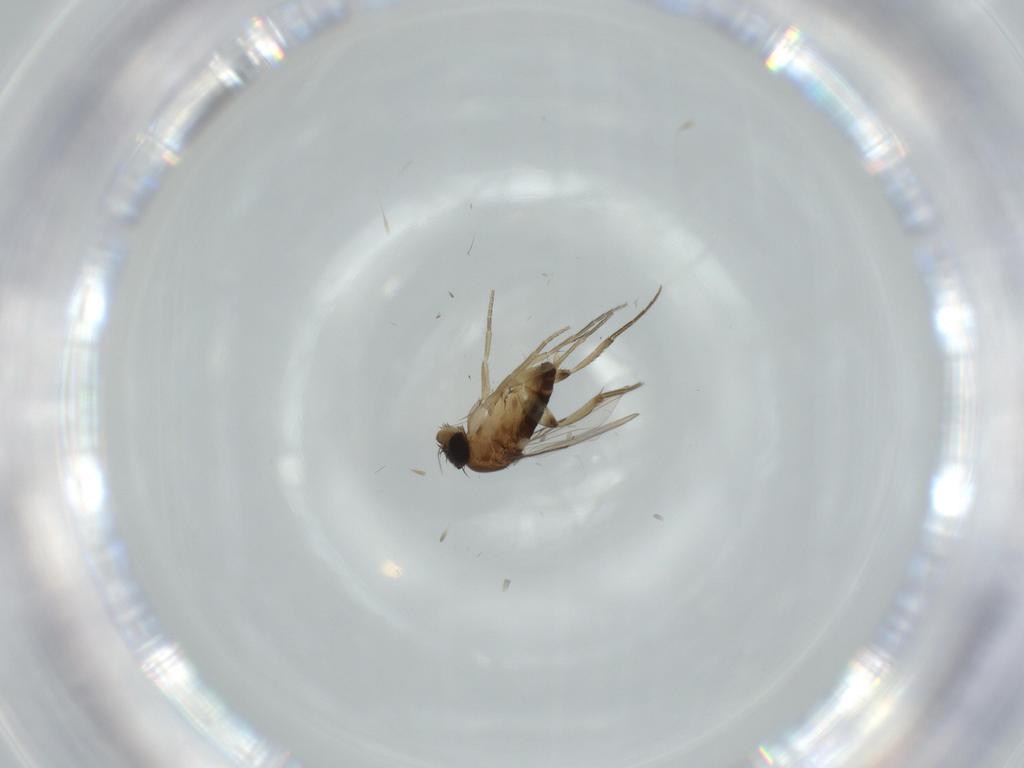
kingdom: Animalia
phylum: Arthropoda
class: Insecta
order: Diptera
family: Phoridae
